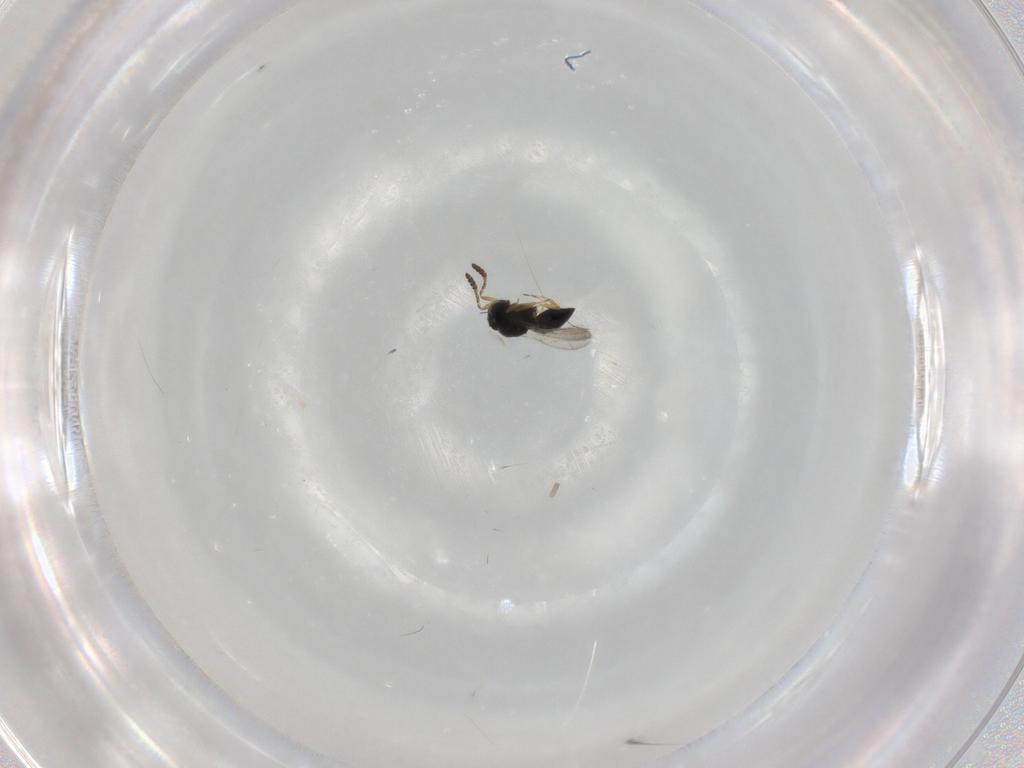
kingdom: Animalia
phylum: Arthropoda
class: Insecta
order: Hymenoptera
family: Scelionidae
